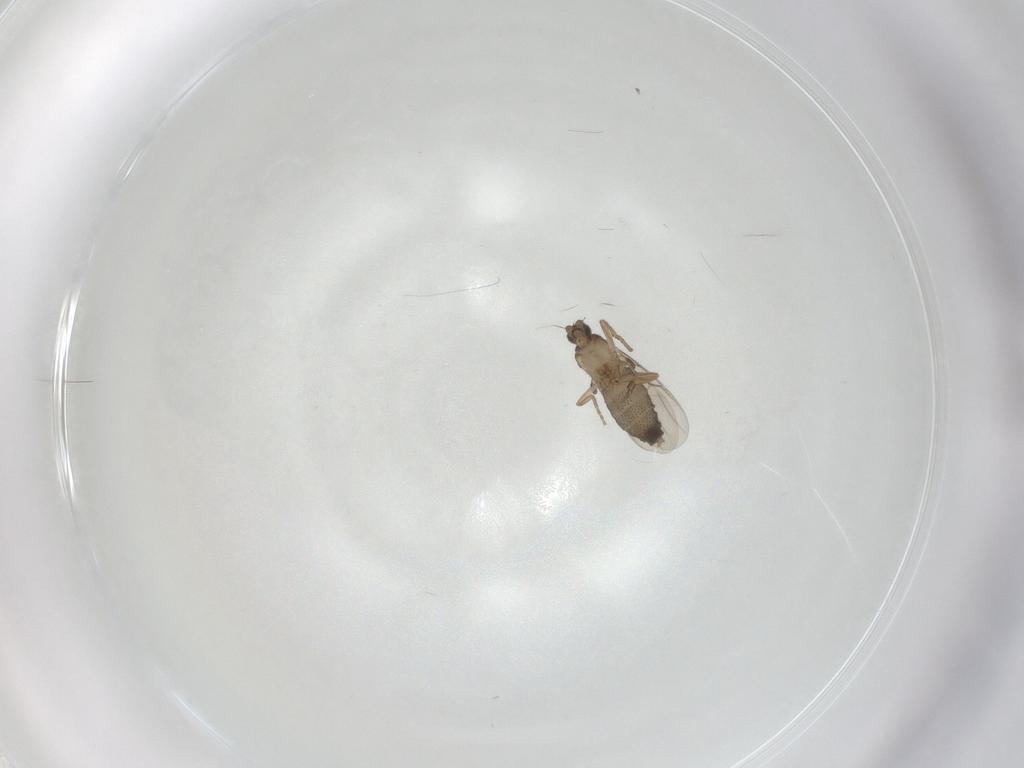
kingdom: Animalia
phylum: Arthropoda
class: Insecta
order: Diptera
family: Phoridae
